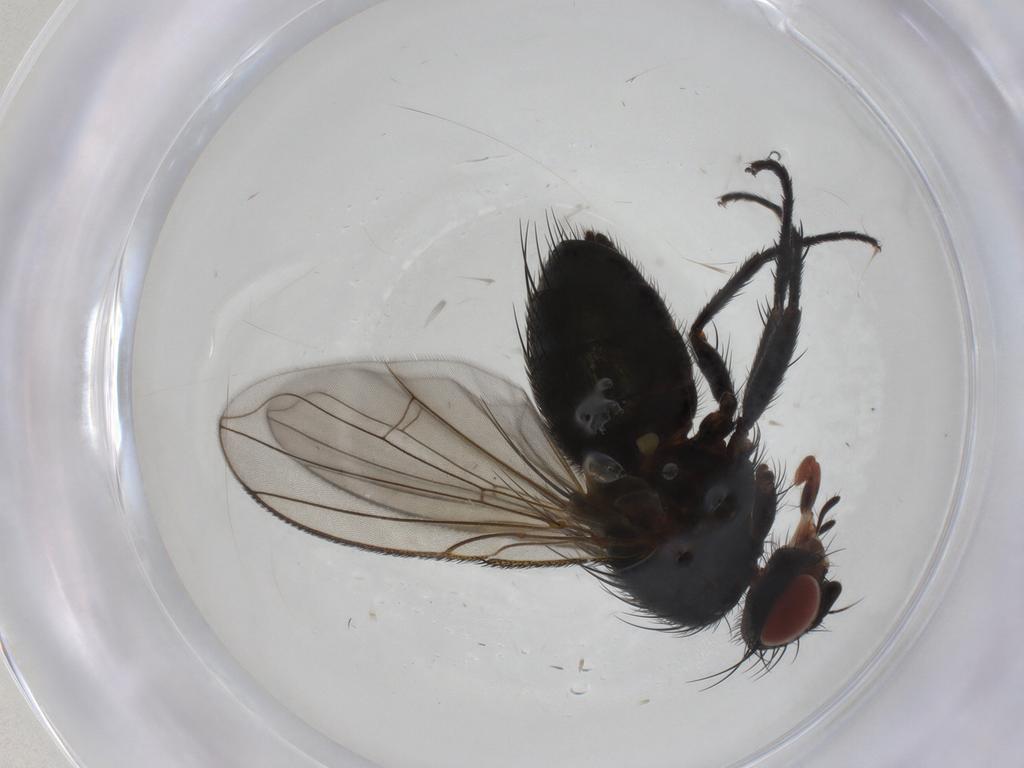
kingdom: Animalia
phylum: Arthropoda
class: Insecta
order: Diptera
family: Tachinidae
